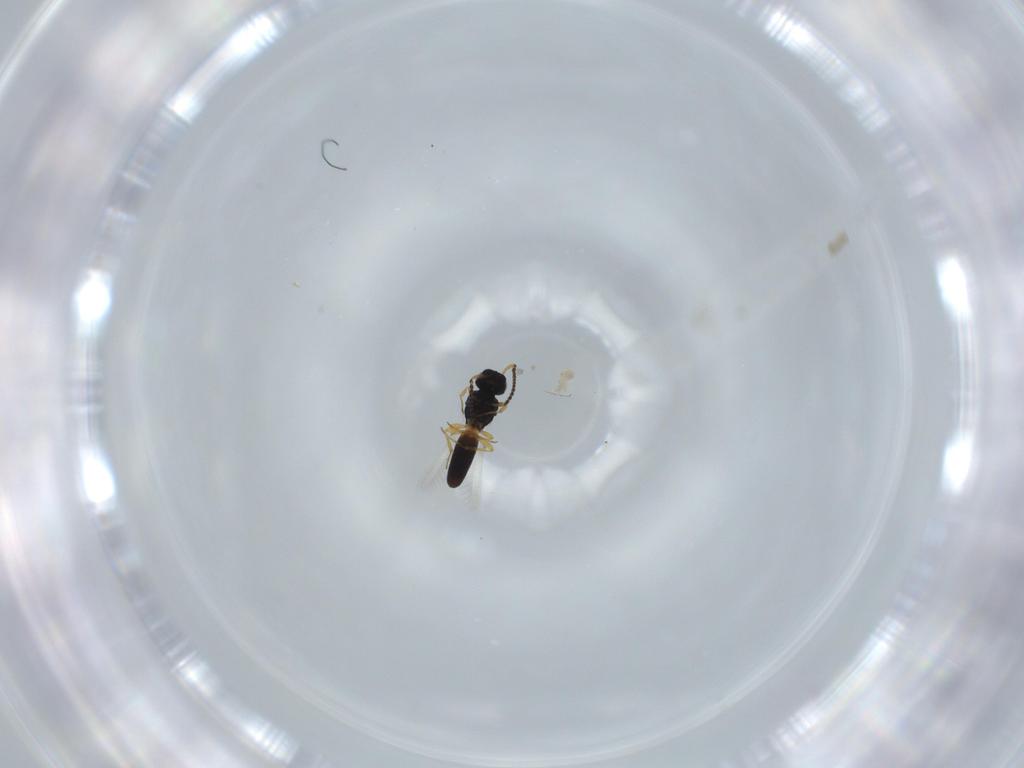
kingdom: Animalia
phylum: Arthropoda
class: Insecta
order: Hymenoptera
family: Scelionidae
